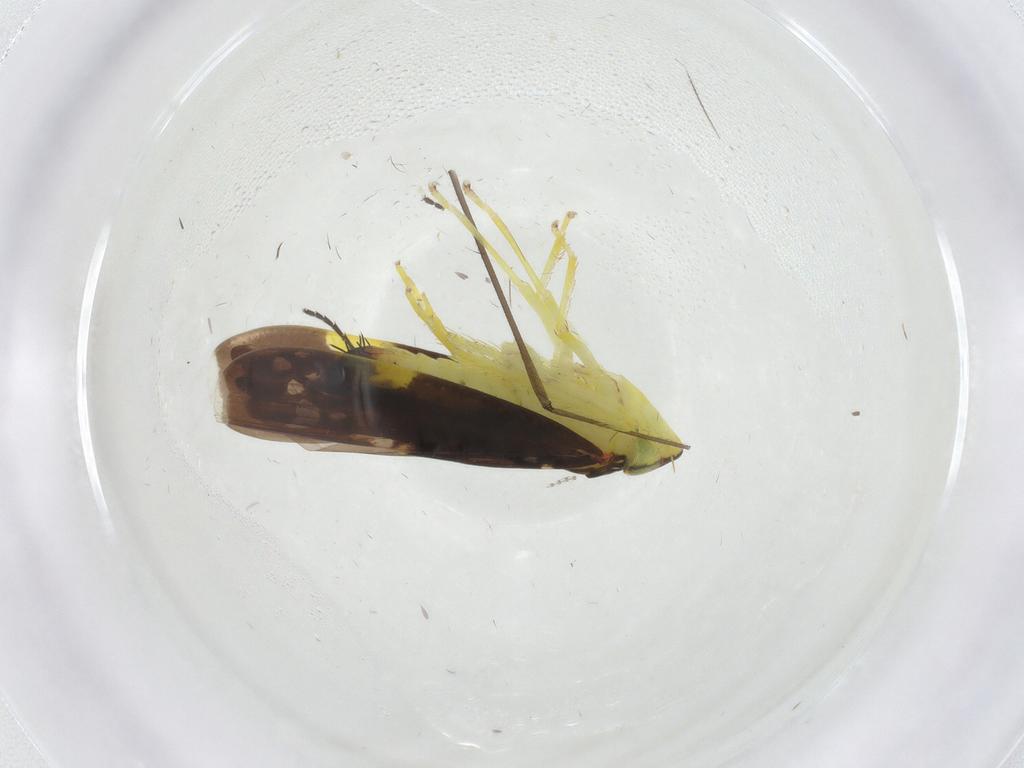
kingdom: Animalia
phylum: Arthropoda
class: Insecta
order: Hemiptera
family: Cicadellidae
